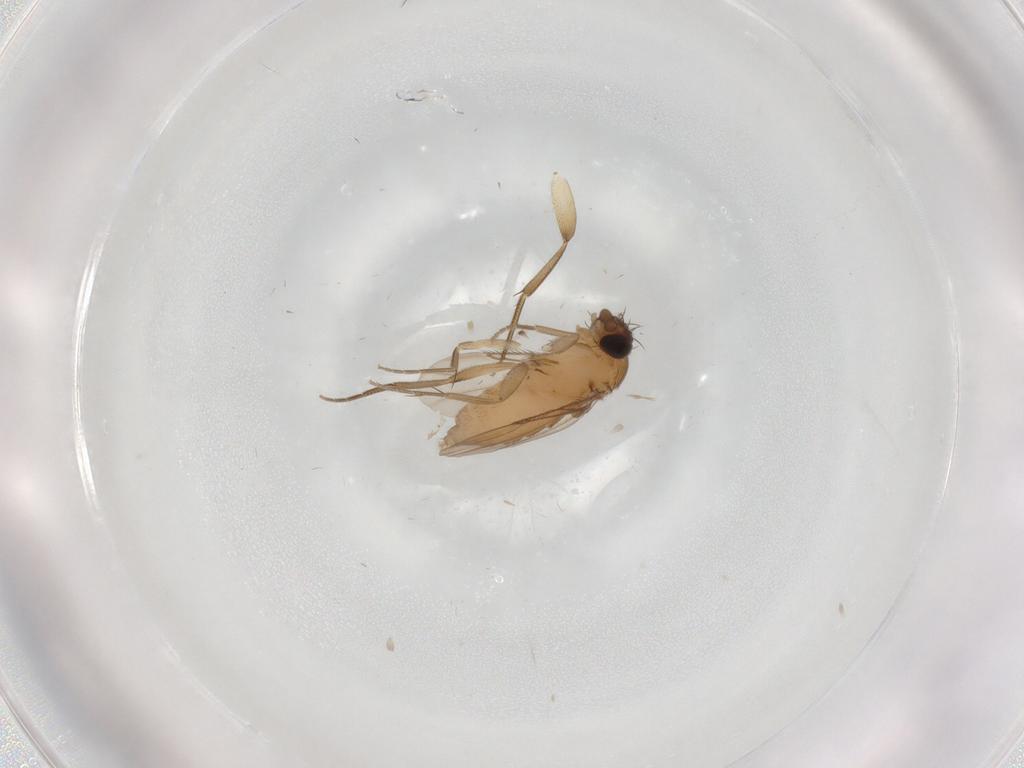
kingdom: Animalia
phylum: Arthropoda
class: Insecta
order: Diptera
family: Phoridae
